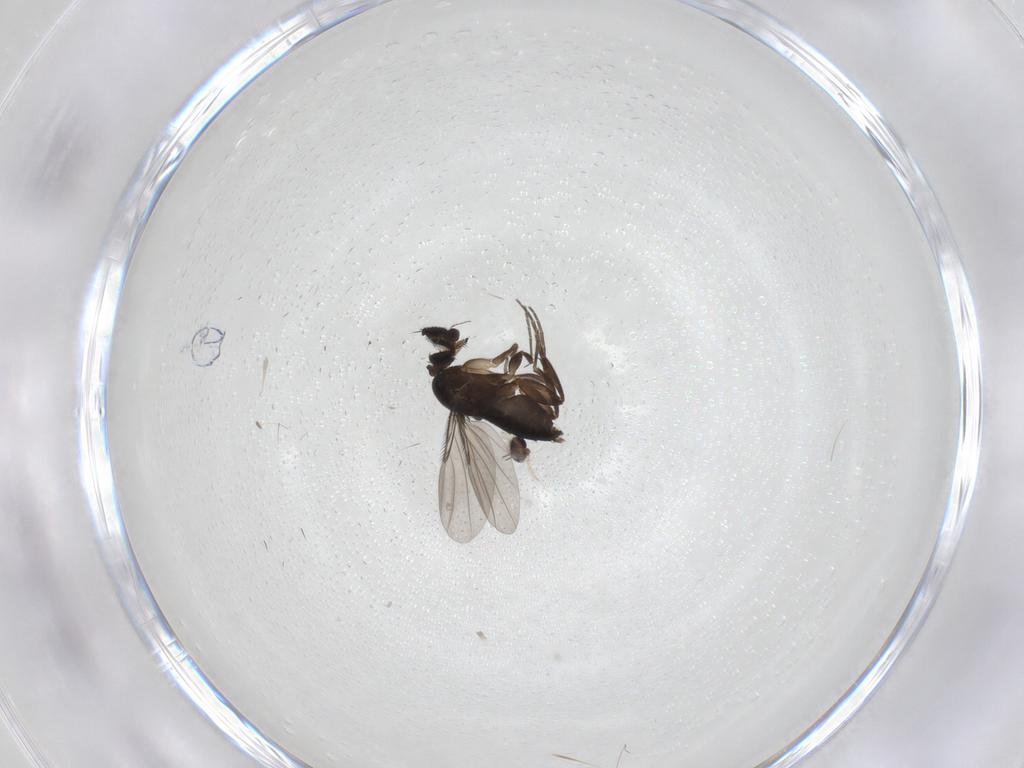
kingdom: Animalia
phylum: Arthropoda
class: Insecta
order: Diptera
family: Phoridae
